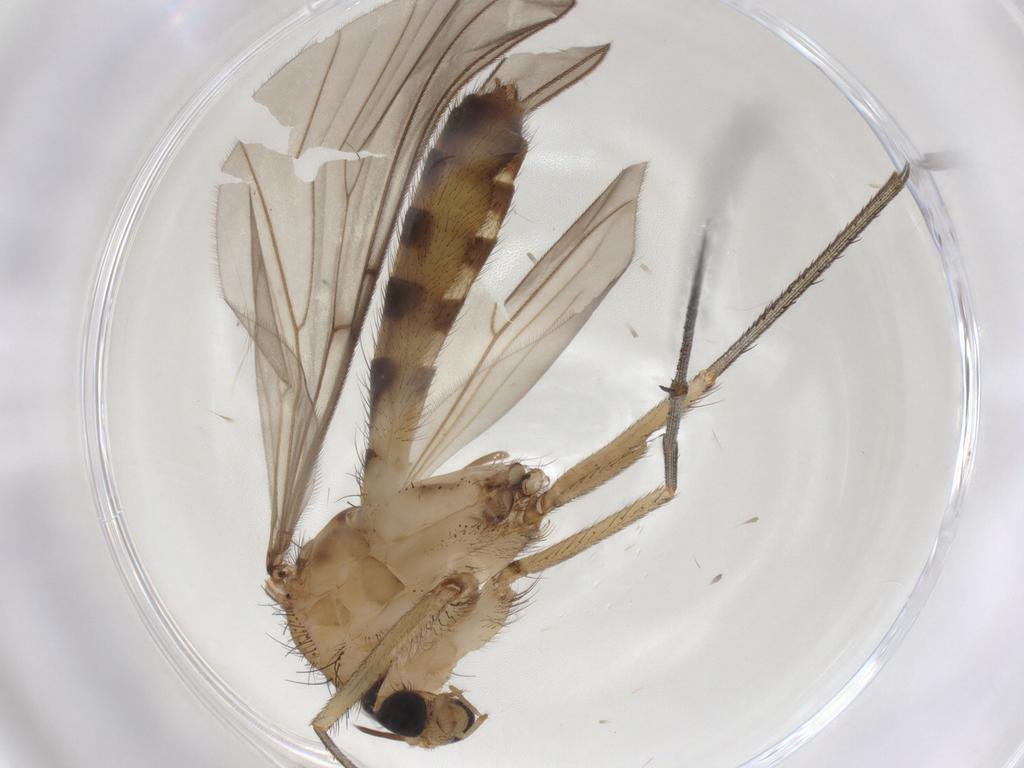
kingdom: Animalia
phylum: Arthropoda
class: Insecta
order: Diptera
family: Mycetophilidae
